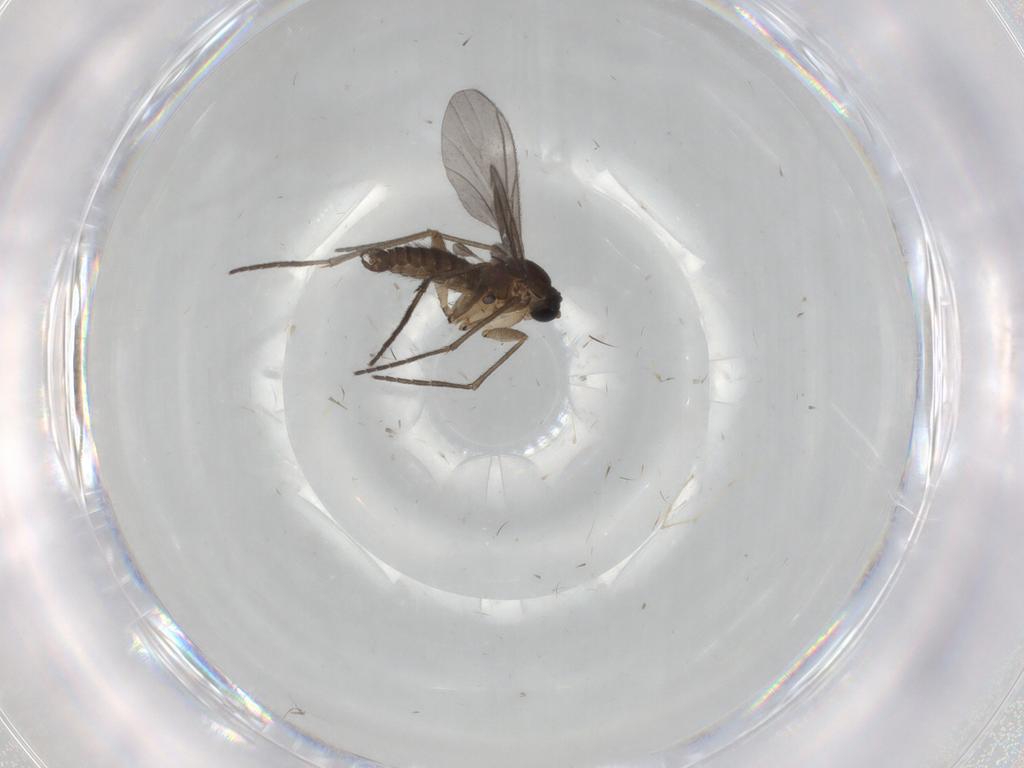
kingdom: Animalia
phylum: Arthropoda
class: Insecta
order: Diptera
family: Sciaridae
